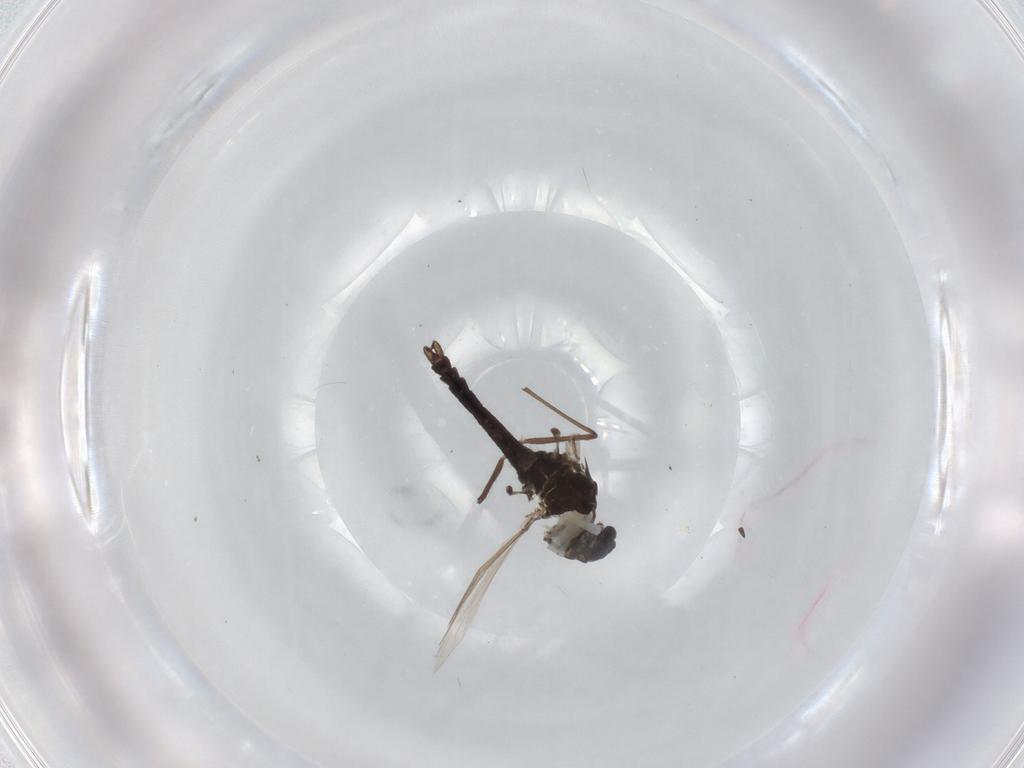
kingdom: Animalia
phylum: Arthropoda
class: Insecta
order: Diptera
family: Chironomidae
